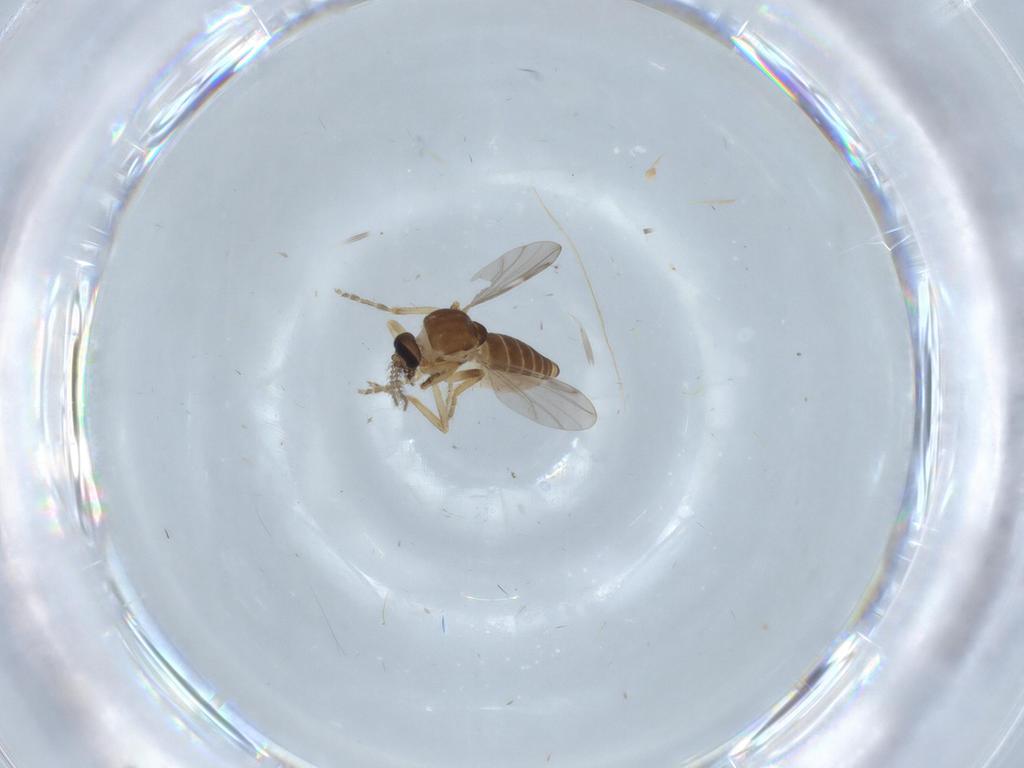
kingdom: Animalia
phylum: Arthropoda
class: Insecta
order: Diptera
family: Ceratopogonidae
